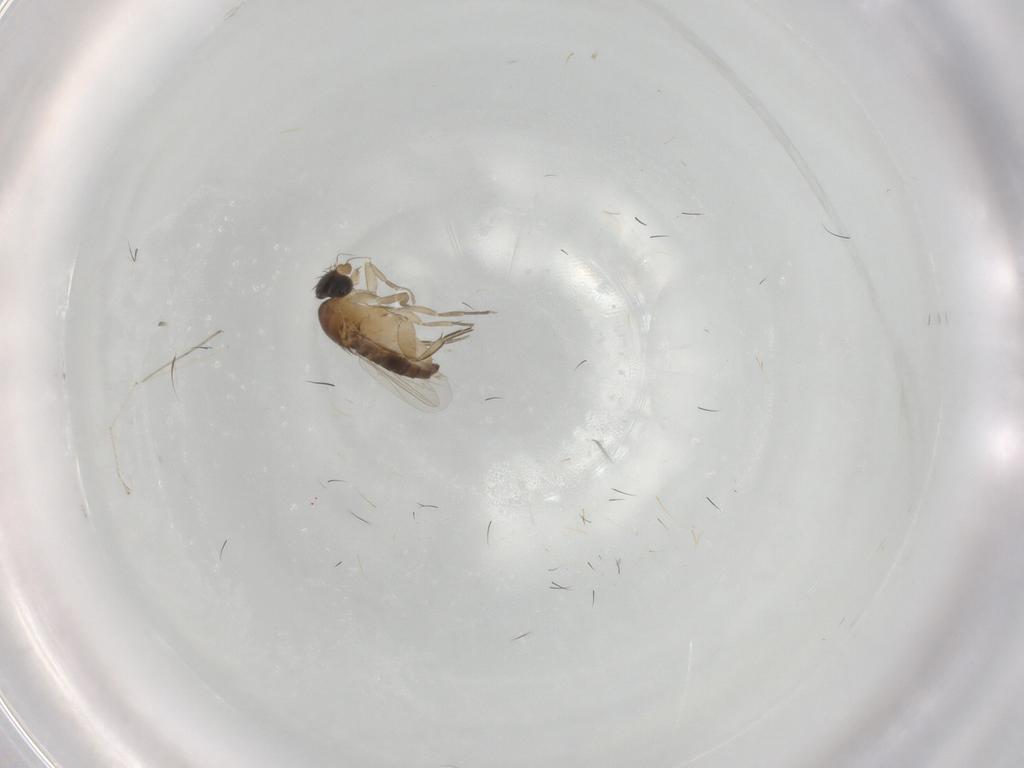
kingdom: Animalia
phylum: Arthropoda
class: Insecta
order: Diptera
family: Phoridae
